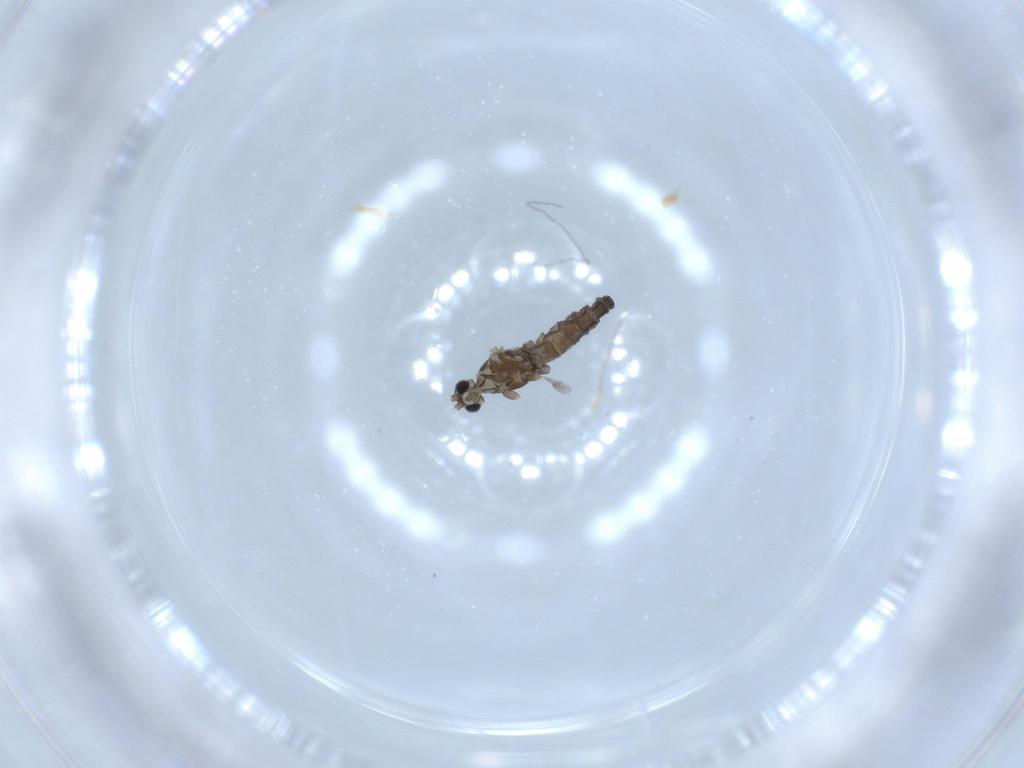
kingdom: Animalia
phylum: Arthropoda
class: Insecta
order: Diptera
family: Cecidomyiidae
